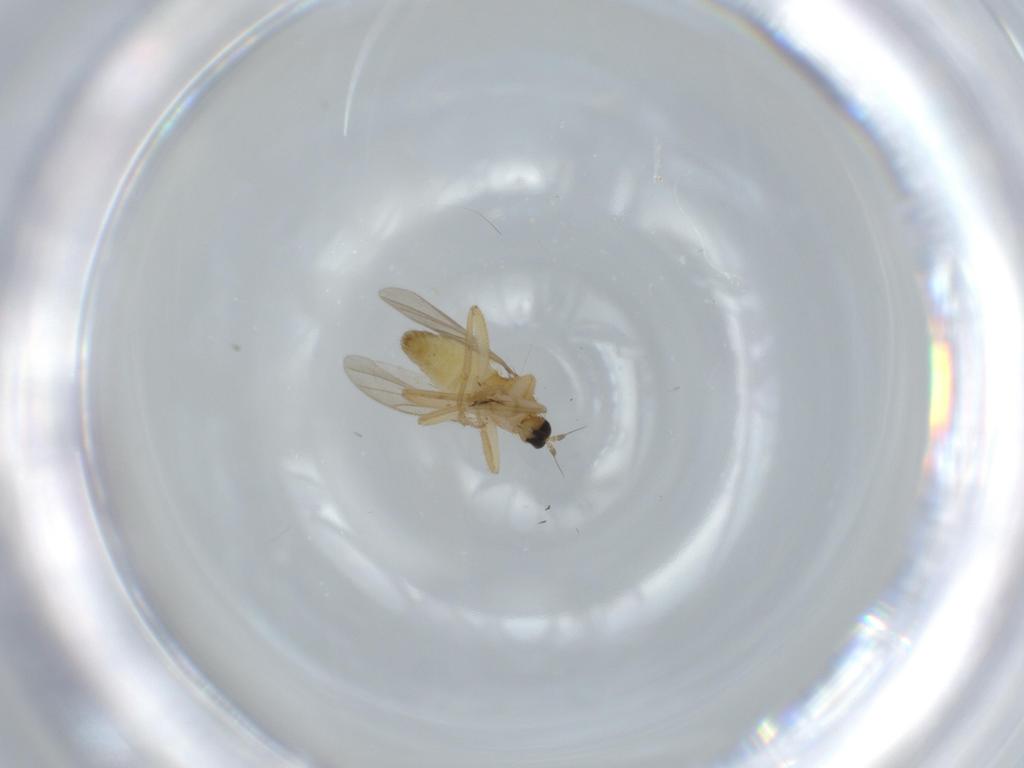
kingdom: Animalia
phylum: Arthropoda
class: Insecta
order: Diptera
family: Hybotidae
